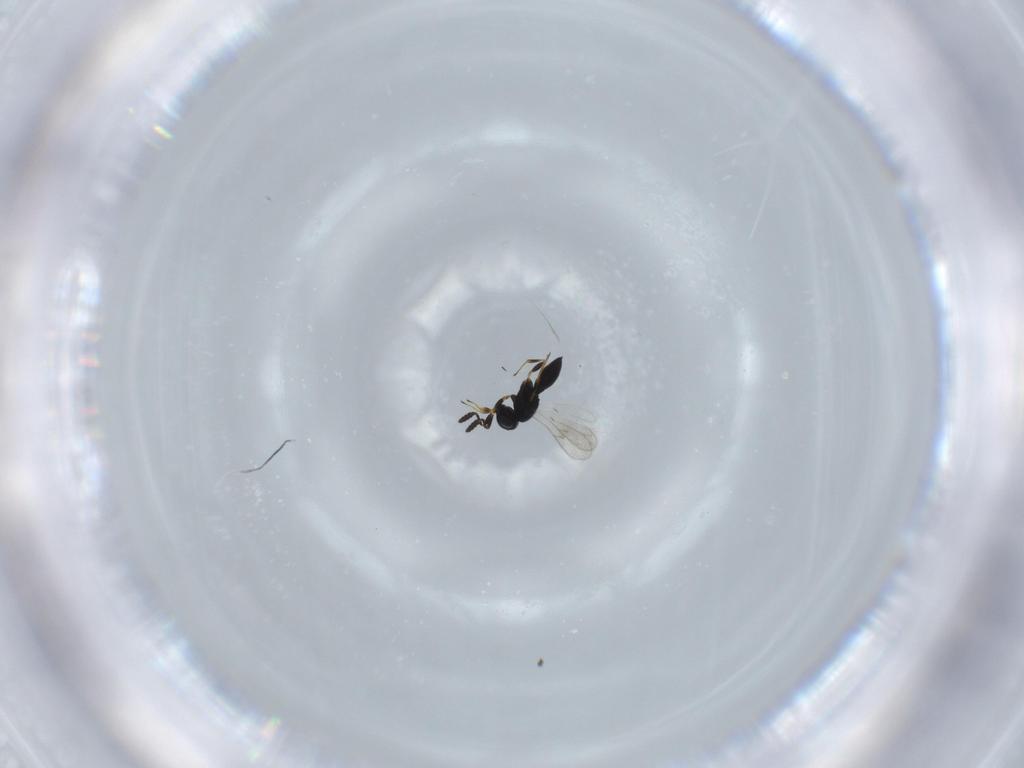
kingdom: Animalia
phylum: Arthropoda
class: Insecta
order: Hymenoptera
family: Scelionidae
